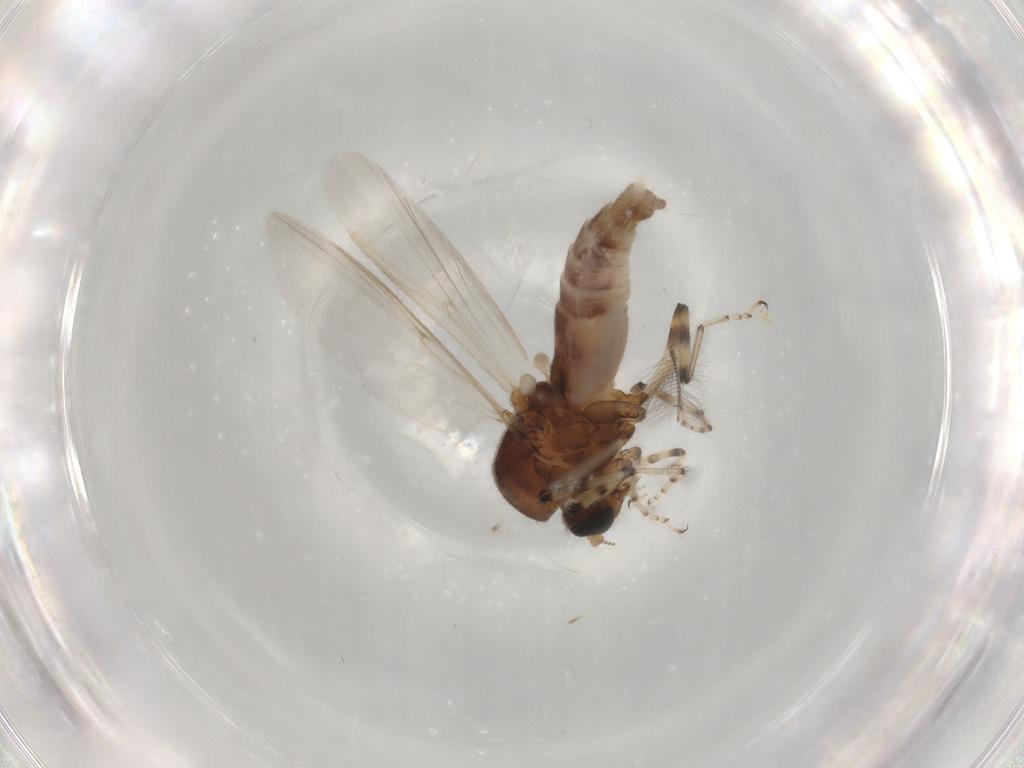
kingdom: Animalia
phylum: Arthropoda
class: Insecta
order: Diptera
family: Ceratopogonidae
